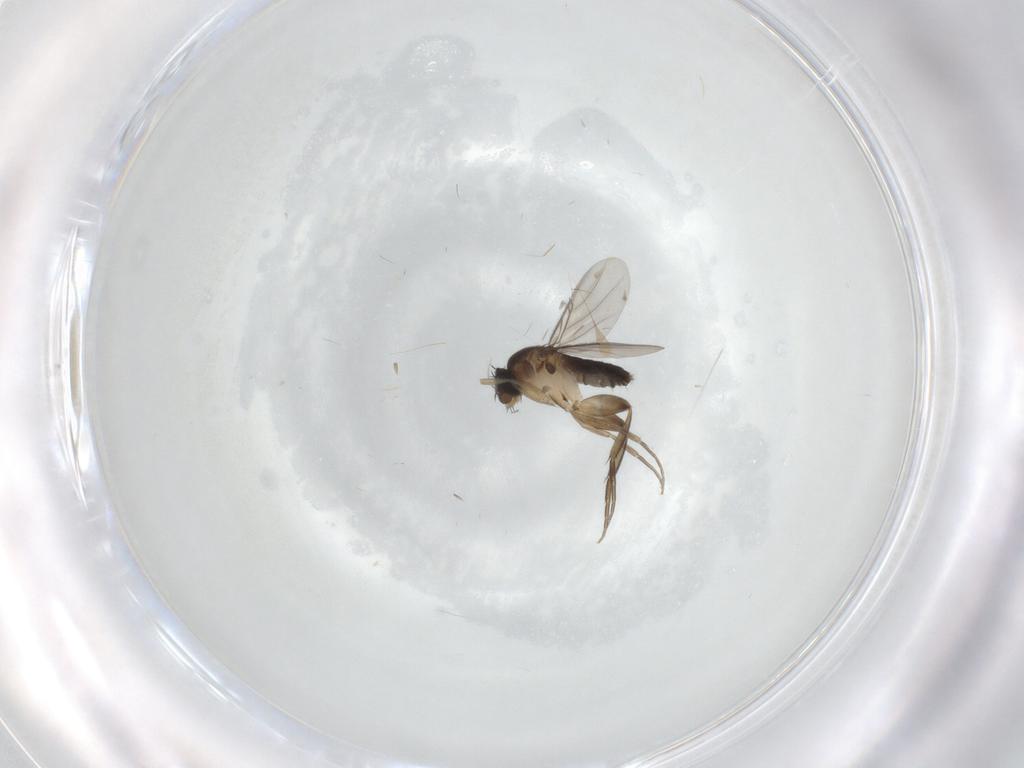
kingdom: Animalia
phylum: Arthropoda
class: Insecta
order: Diptera
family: Phoridae
